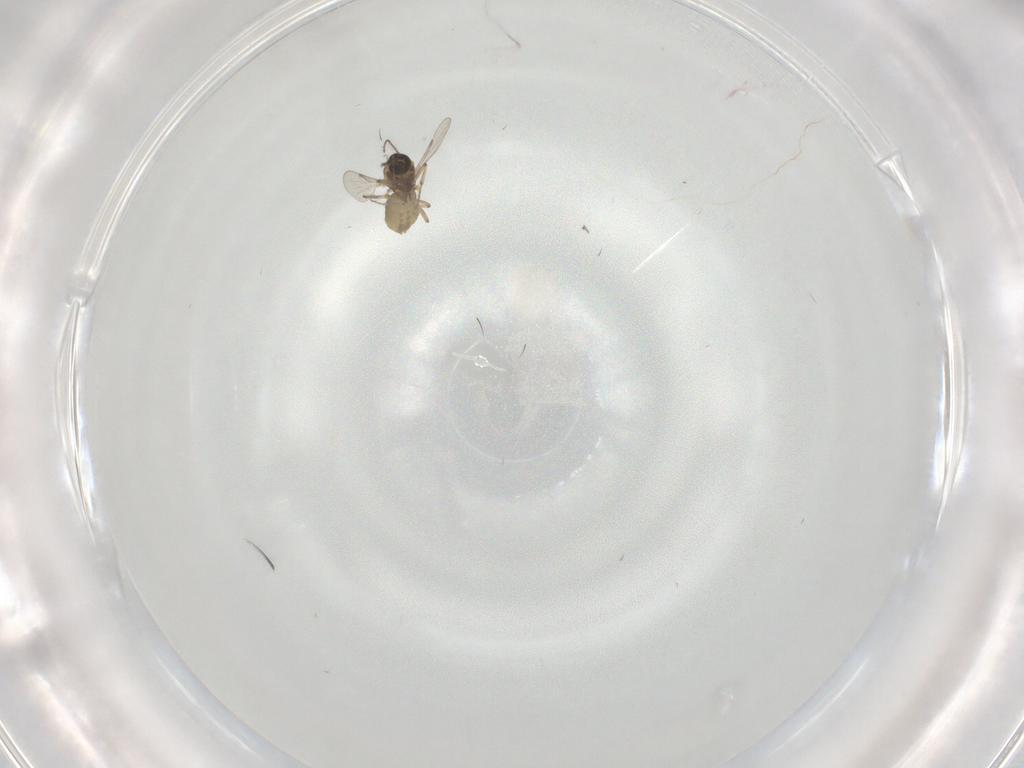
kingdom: Animalia
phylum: Arthropoda
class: Insecta
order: Diptera
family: Ceratopogonidae
